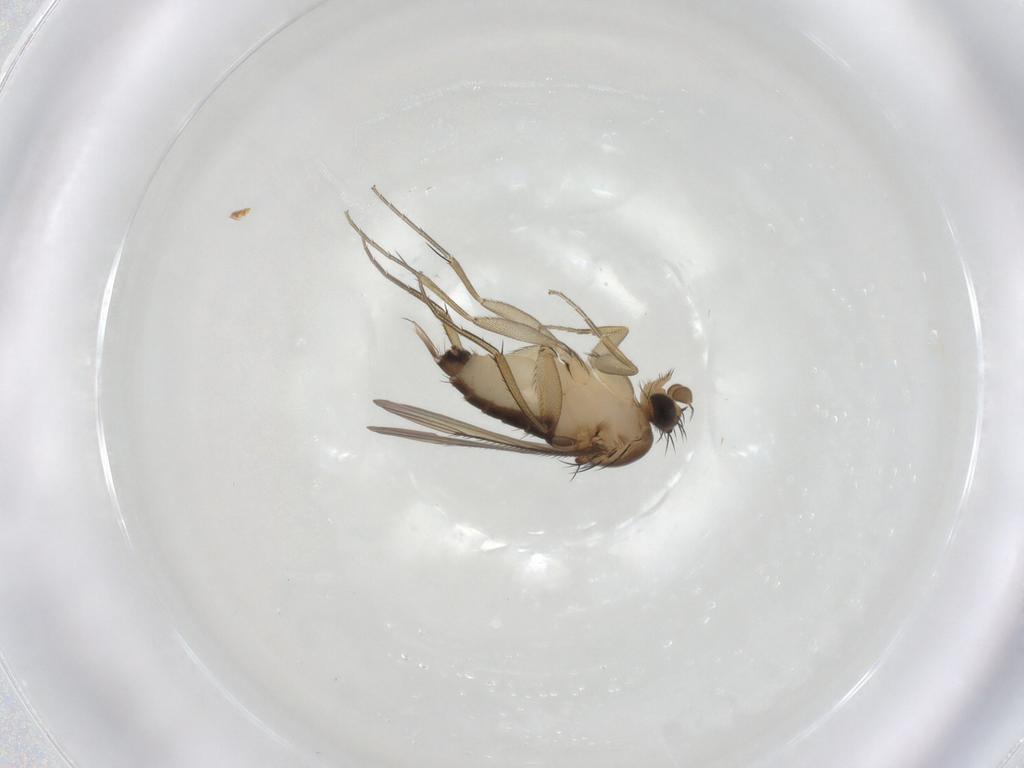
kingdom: Animalia
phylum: Arthropoda
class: Insecta
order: Diptera
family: Phoridae
